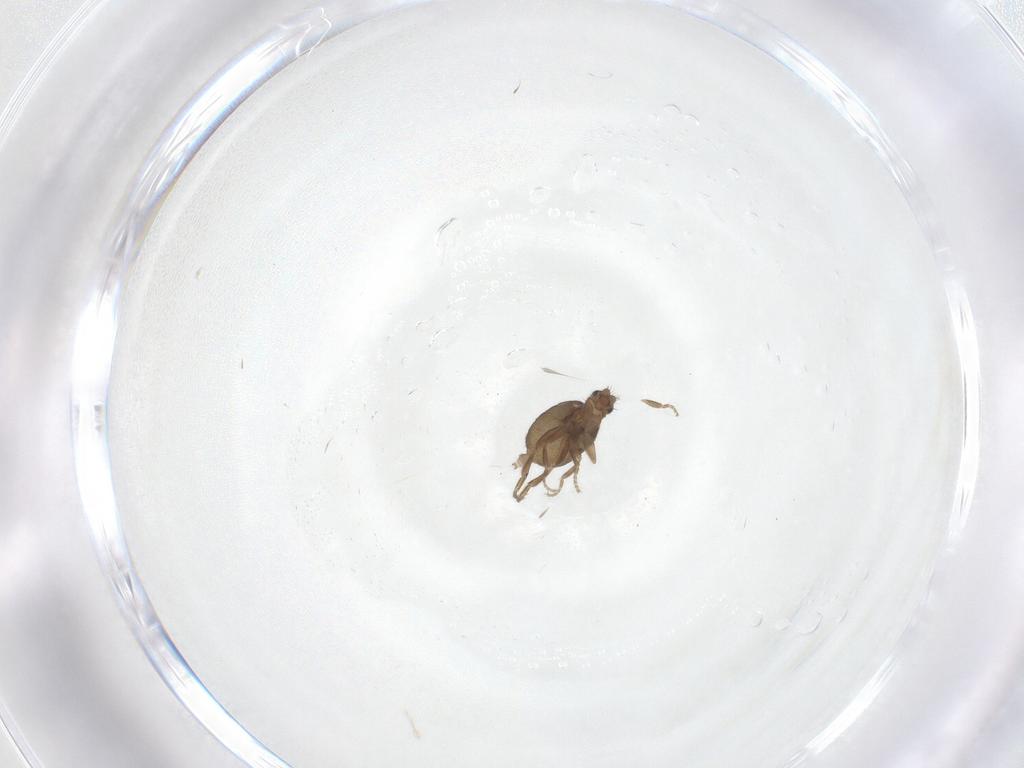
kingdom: Animalia
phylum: Arthropoda
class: Insecta
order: Diptera
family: Phoridae
